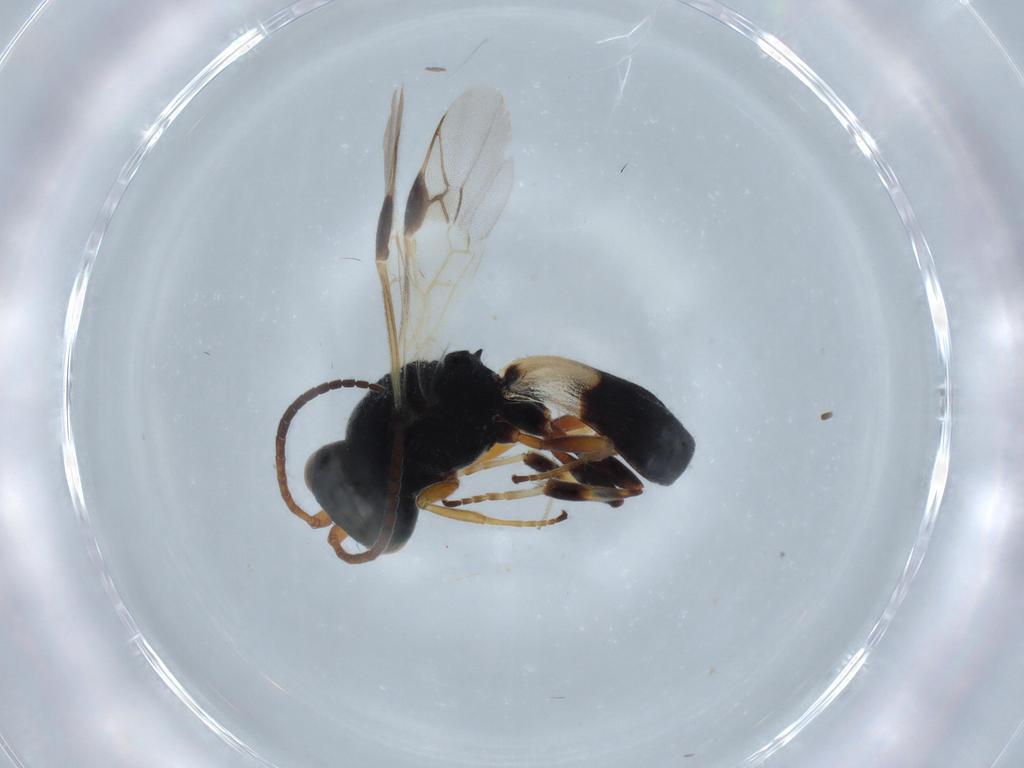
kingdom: Animalia
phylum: Arthropoda
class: Insecta
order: Hymenoptera
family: Braconidae
